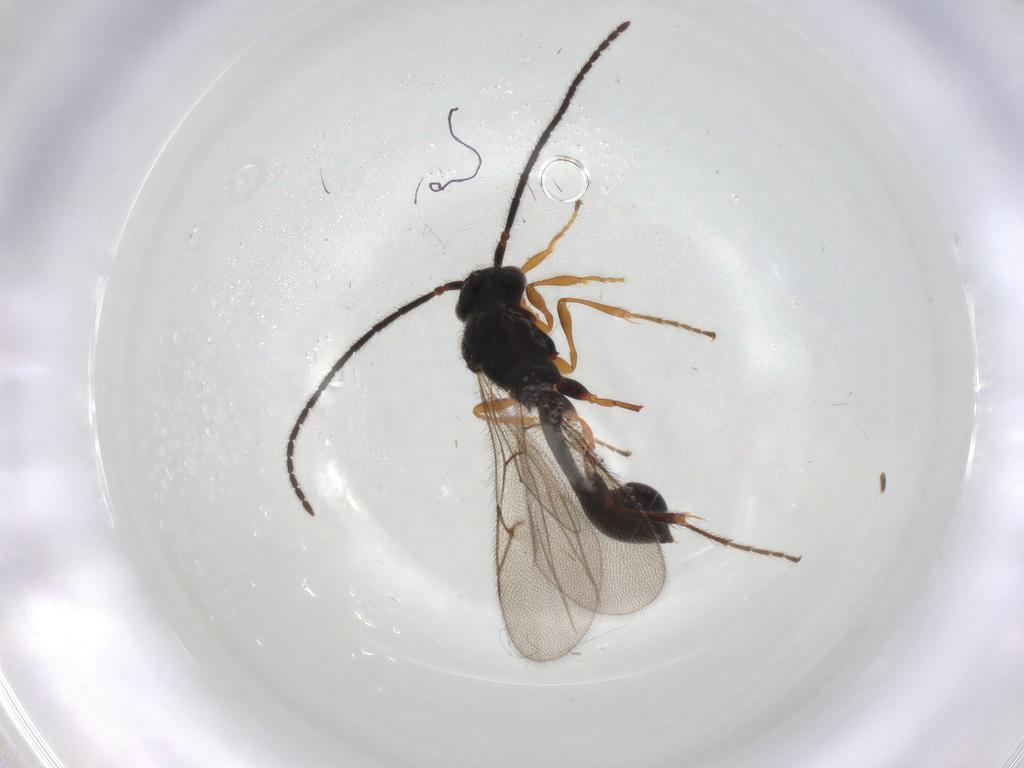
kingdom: Animalia
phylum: Arthropoda
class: Insecta
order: Hymenoptera
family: Diapriidae
